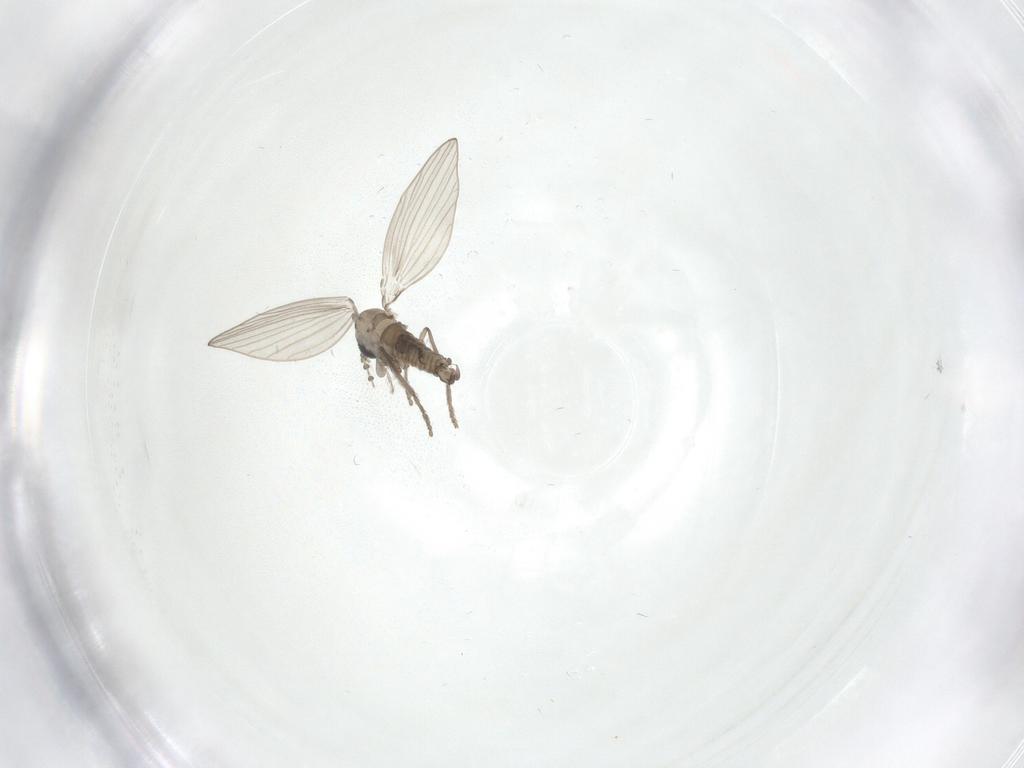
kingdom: Animalia
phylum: Arthropoda
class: Insecta
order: Diptera
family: Psychodidae
